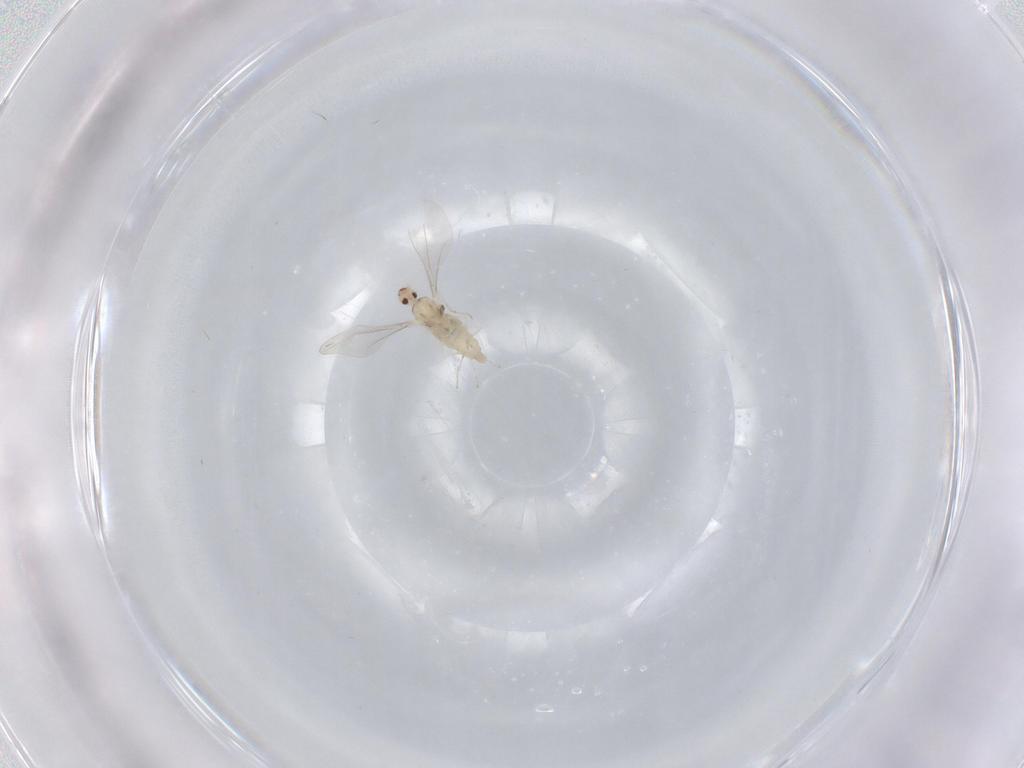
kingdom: Animalia
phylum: Arthropoda
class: Insecta
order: Diptera
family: Cecidomyiidae
